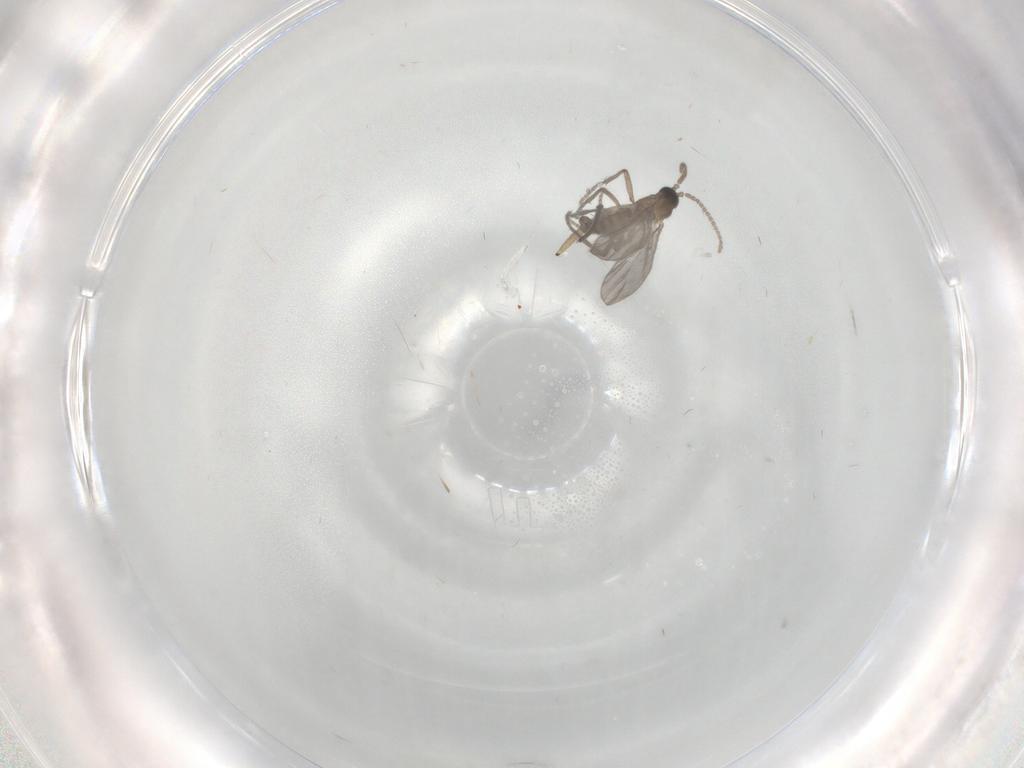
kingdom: Animalia
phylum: Arthropoda
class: Insecta
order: Diptera
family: Sciaridae
